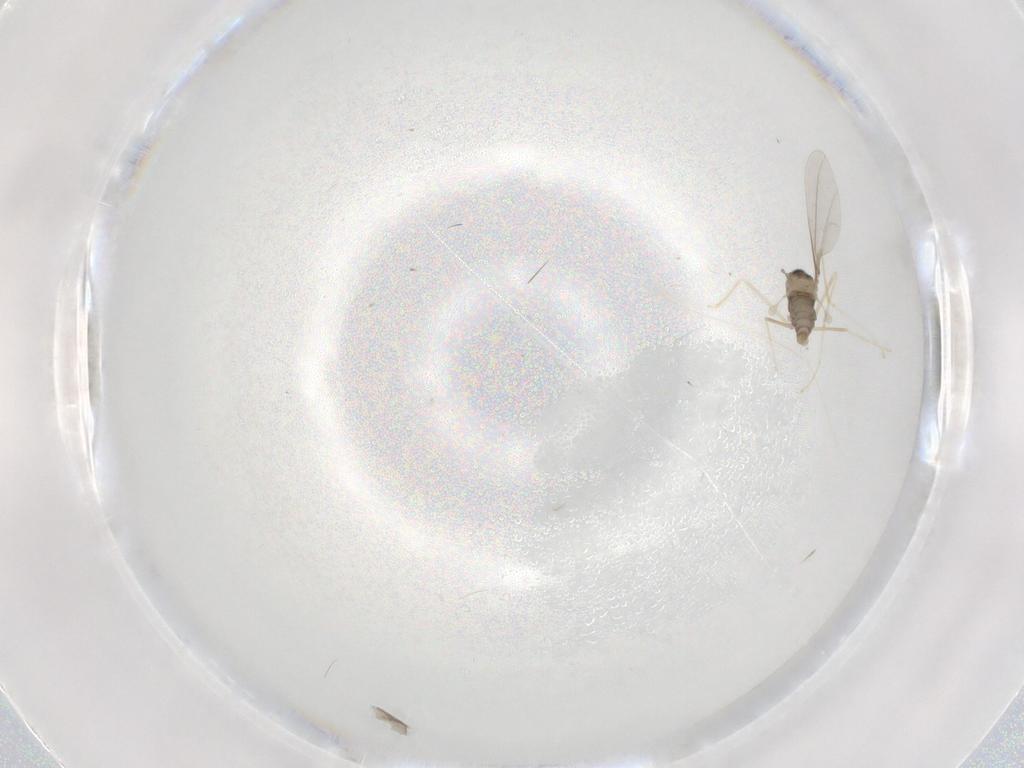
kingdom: Animalia
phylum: Arthropoda
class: Insecta
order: Diptera
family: Cecidomyiidae
